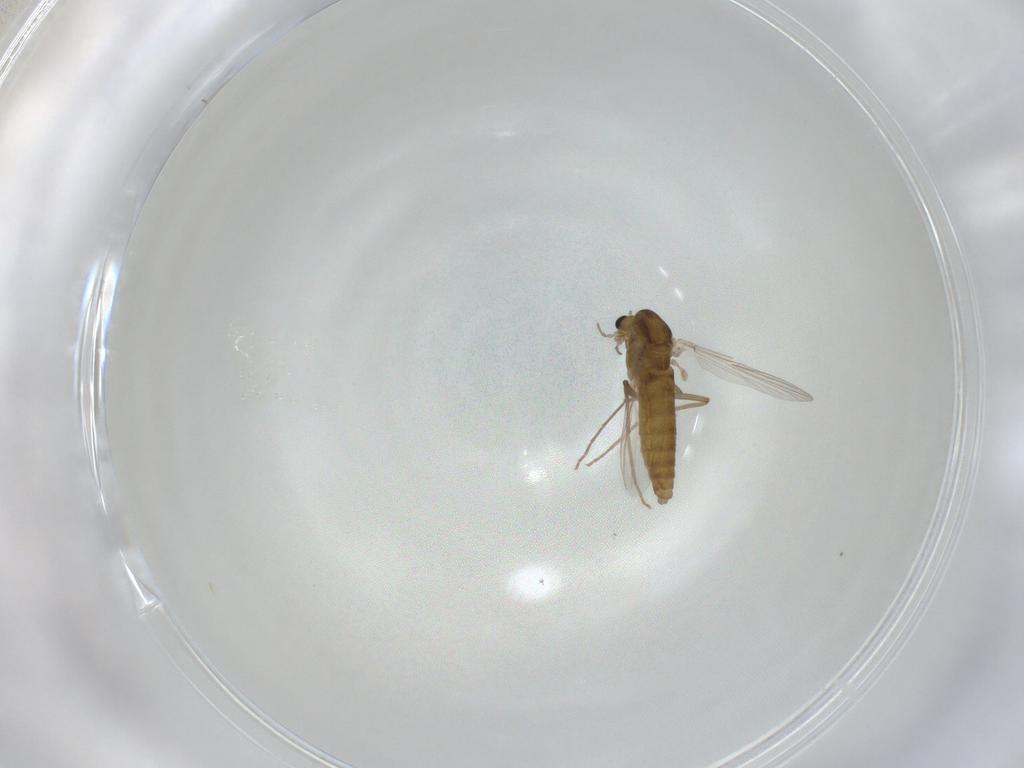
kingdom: Animalia
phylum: Arthropoda
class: Insecta
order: Diptera
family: Chironomidae
